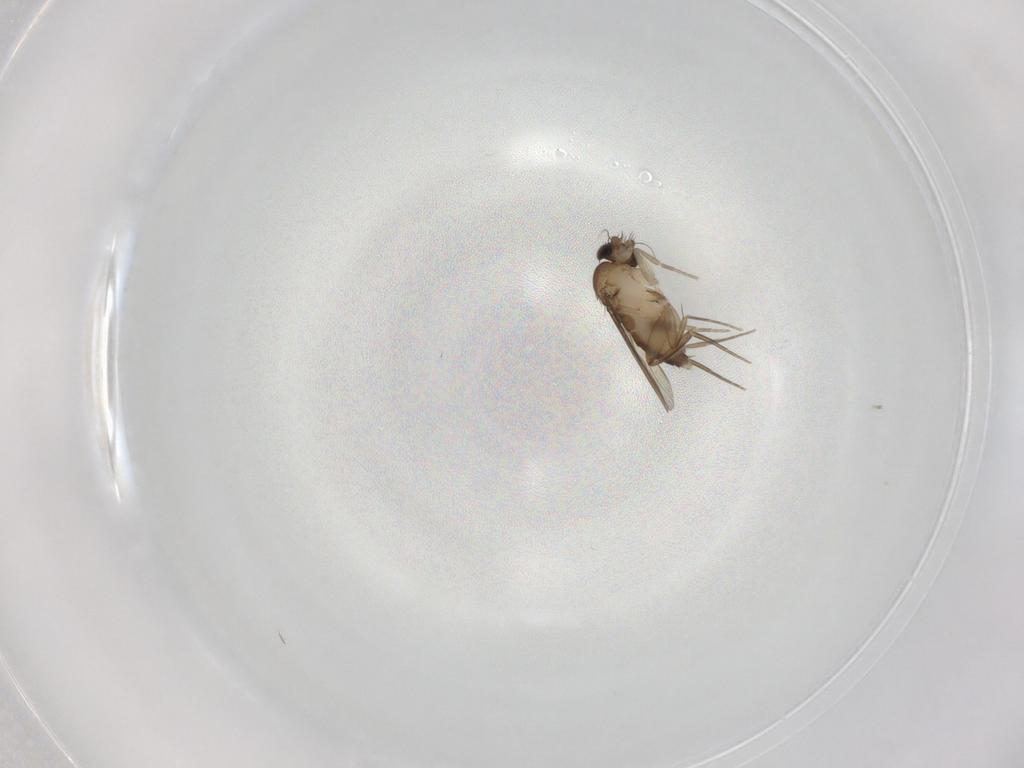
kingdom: Animalia
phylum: Arthropoda
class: Insecta
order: Diptera
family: Phoridae
